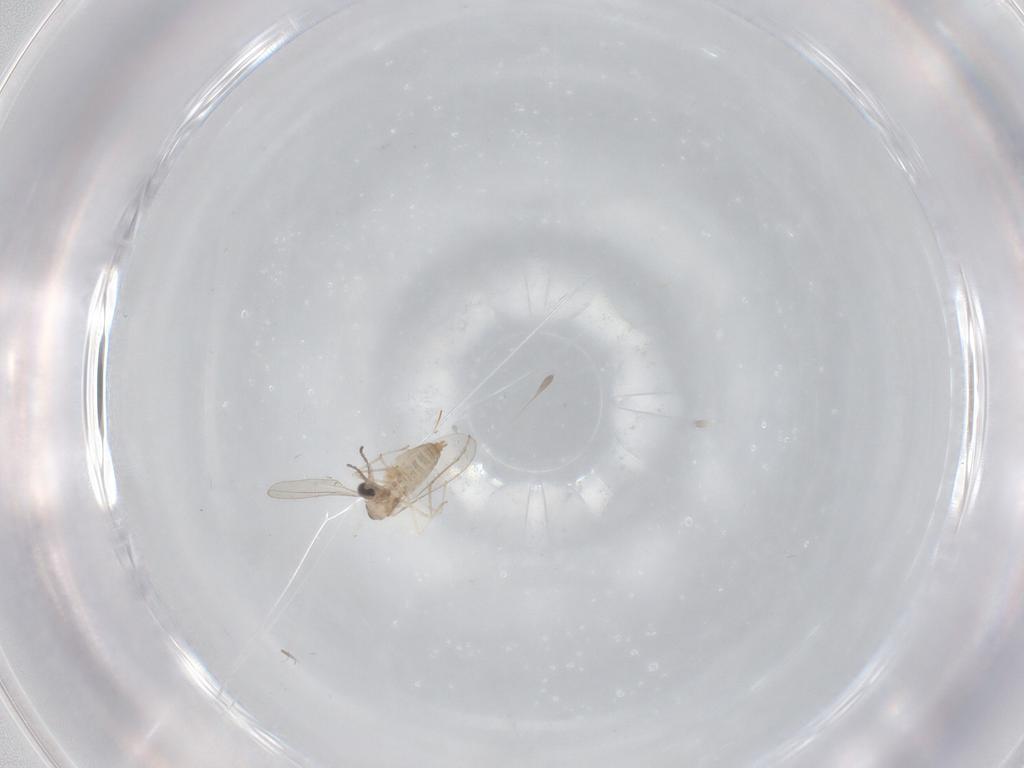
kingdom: Animalia
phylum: Arthropoda
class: Insecta
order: Diptera
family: Cecidomyiidae
